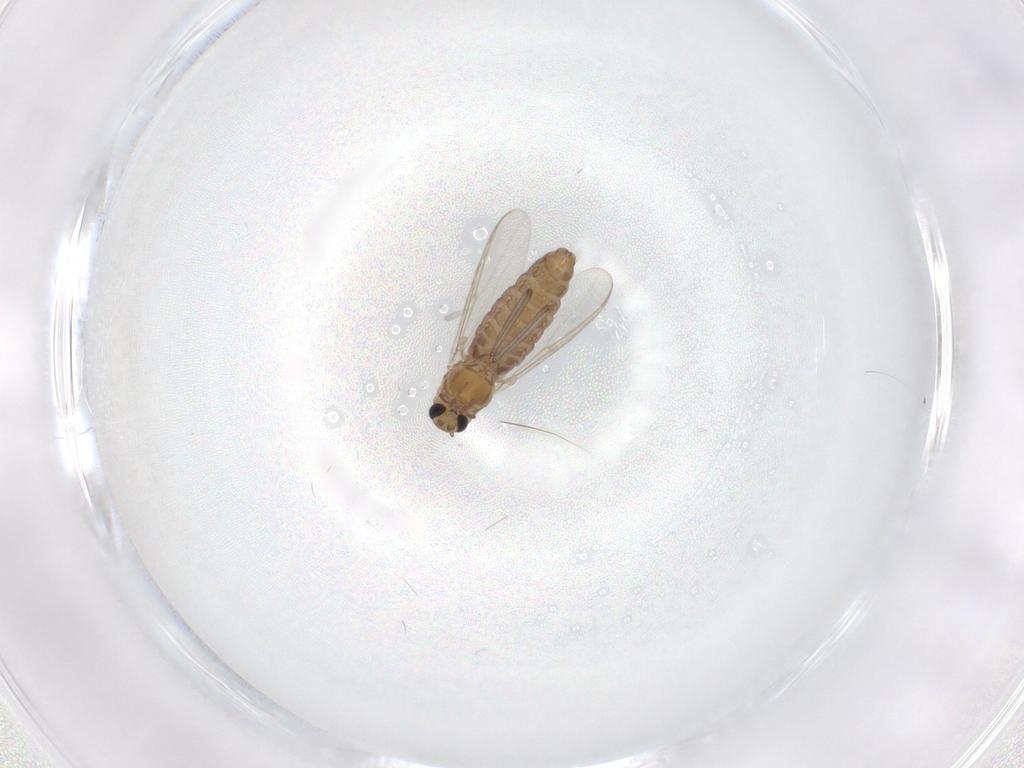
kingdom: Animalia
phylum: Arthropoda
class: Insecta
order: Diptera
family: Chironomidae
